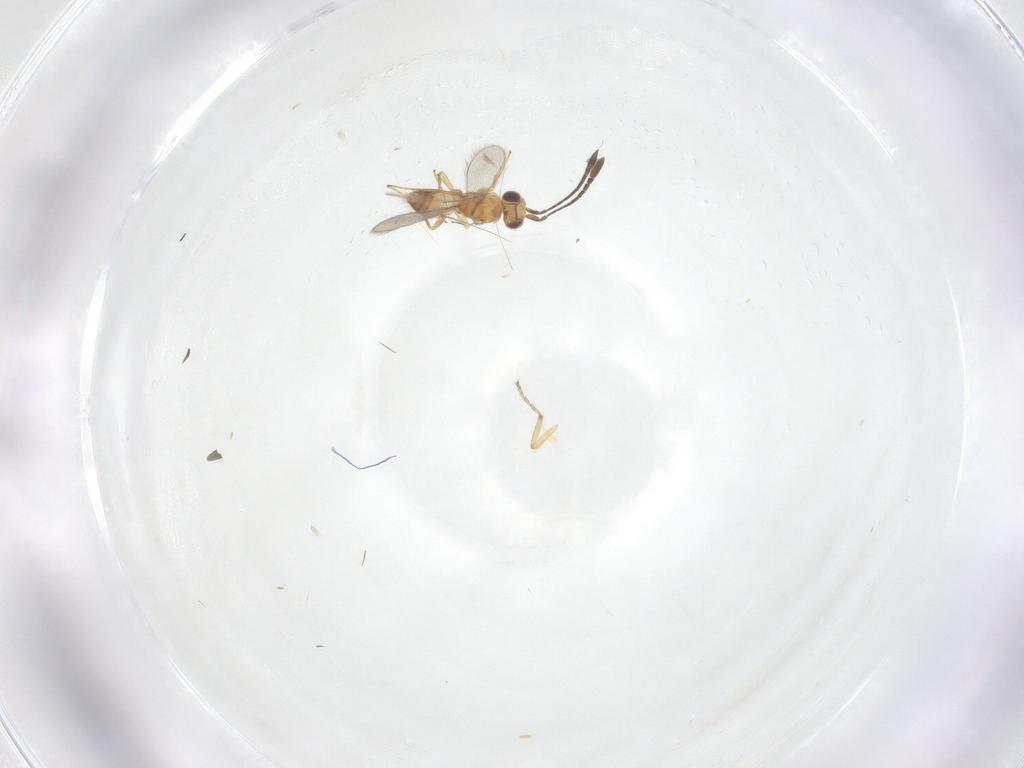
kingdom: Animalia
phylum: Arthropoda
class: Insecta
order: Hymenoptera
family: Mymaridae
